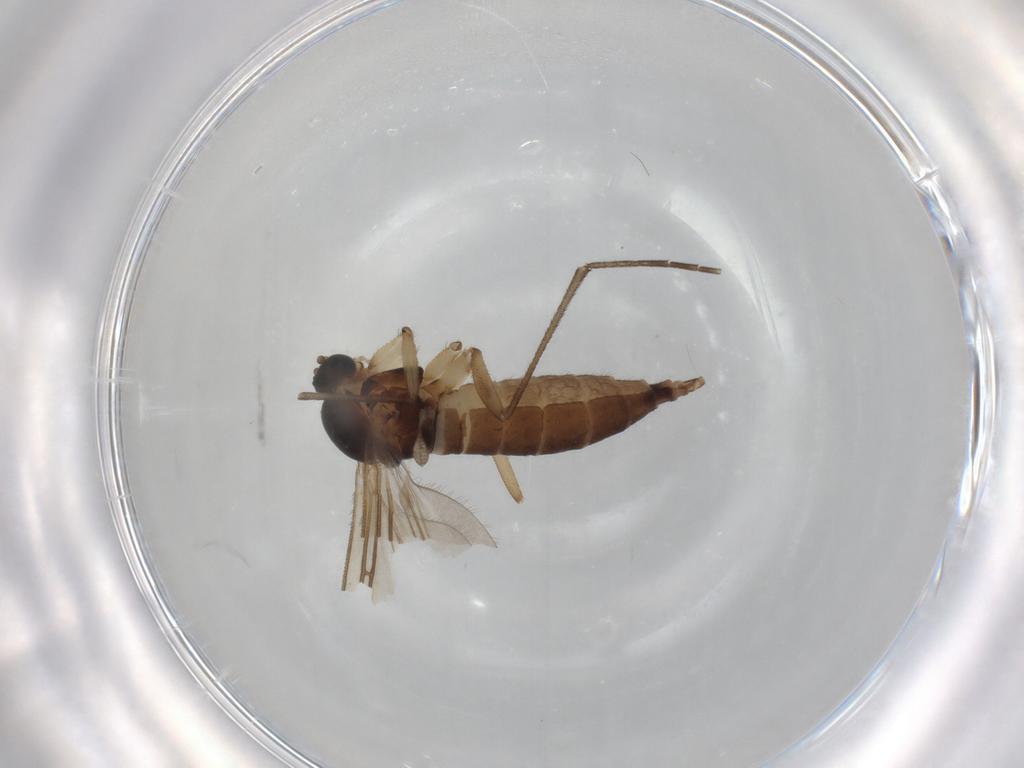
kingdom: Animalia
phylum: Arthropoda
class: Insecta
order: Diptera
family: Sciaridae
